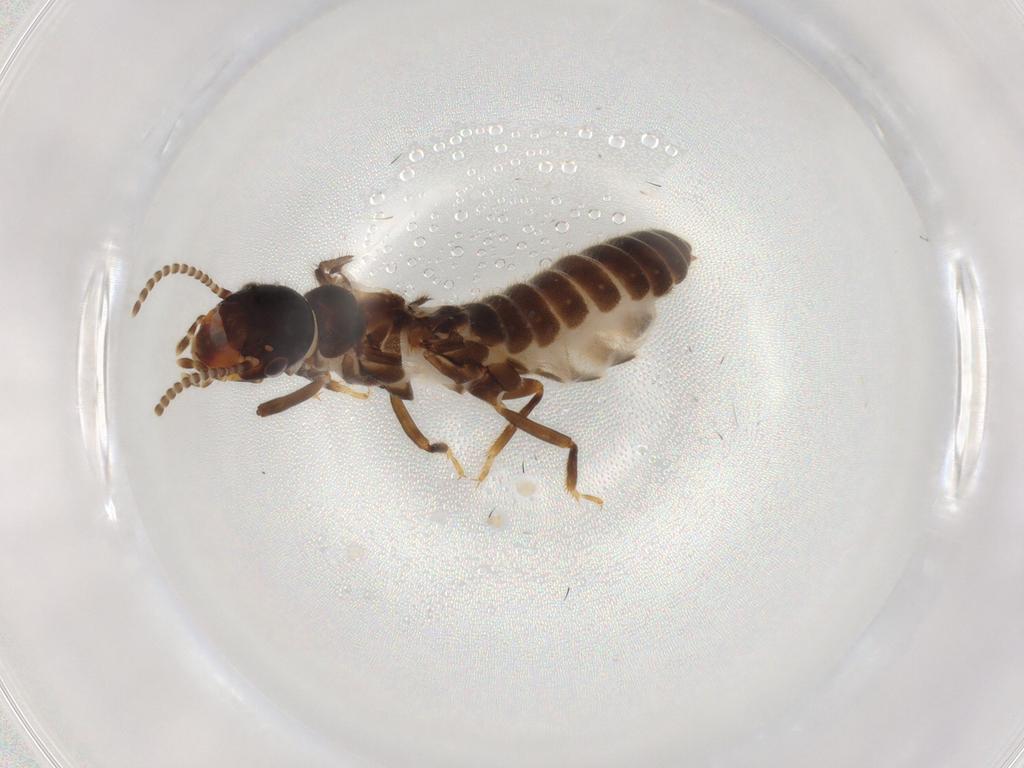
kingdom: Animalia
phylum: Arthropoda
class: Insecta
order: Blattodea
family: Termitidae
